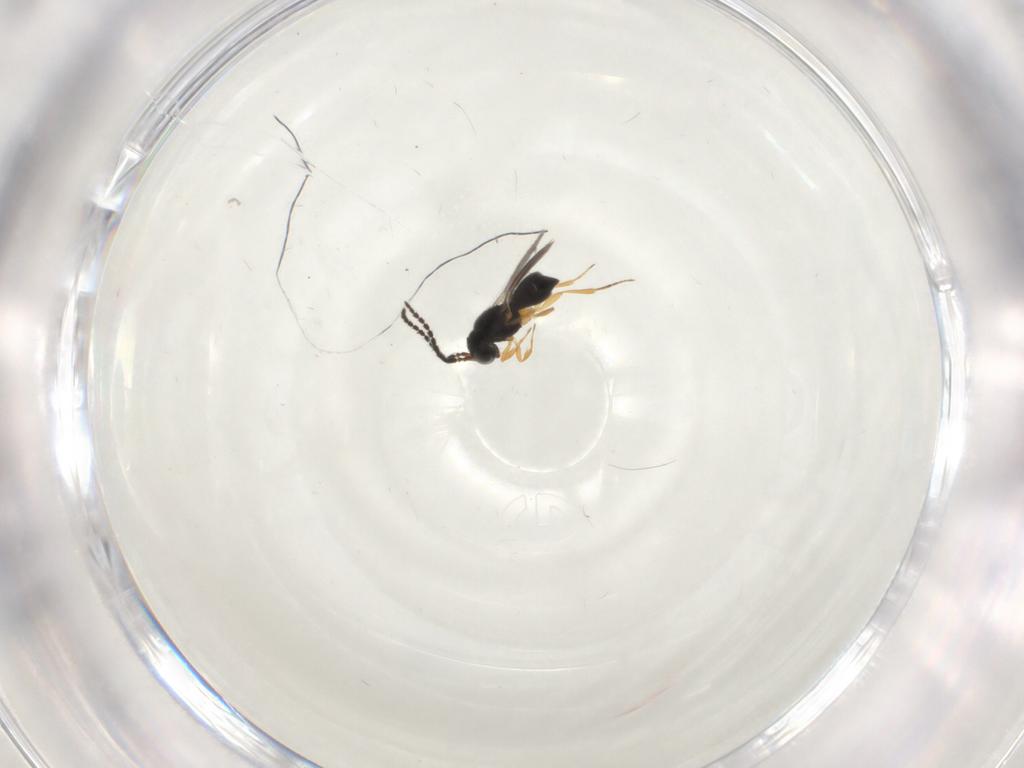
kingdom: Animalia
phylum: Arthropoda
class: Insecta
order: Hymenoptera
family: Scelionidae
